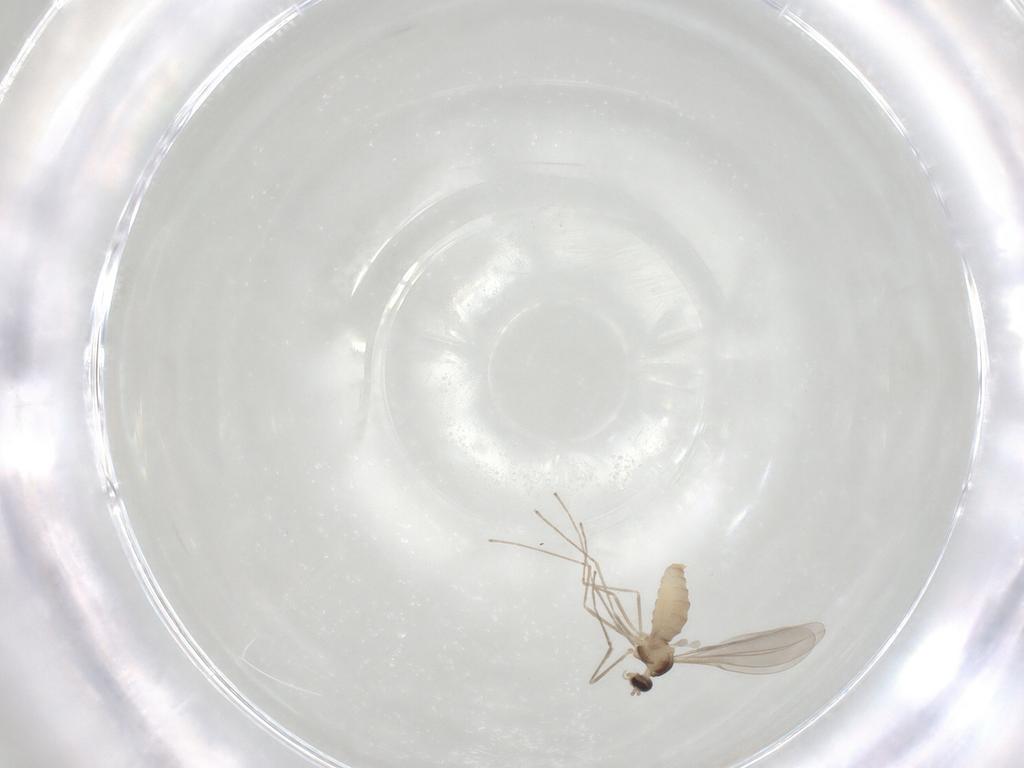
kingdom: Animalia
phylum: Arthropoda
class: Insecta
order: Diptera
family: Cecidomyiidae
